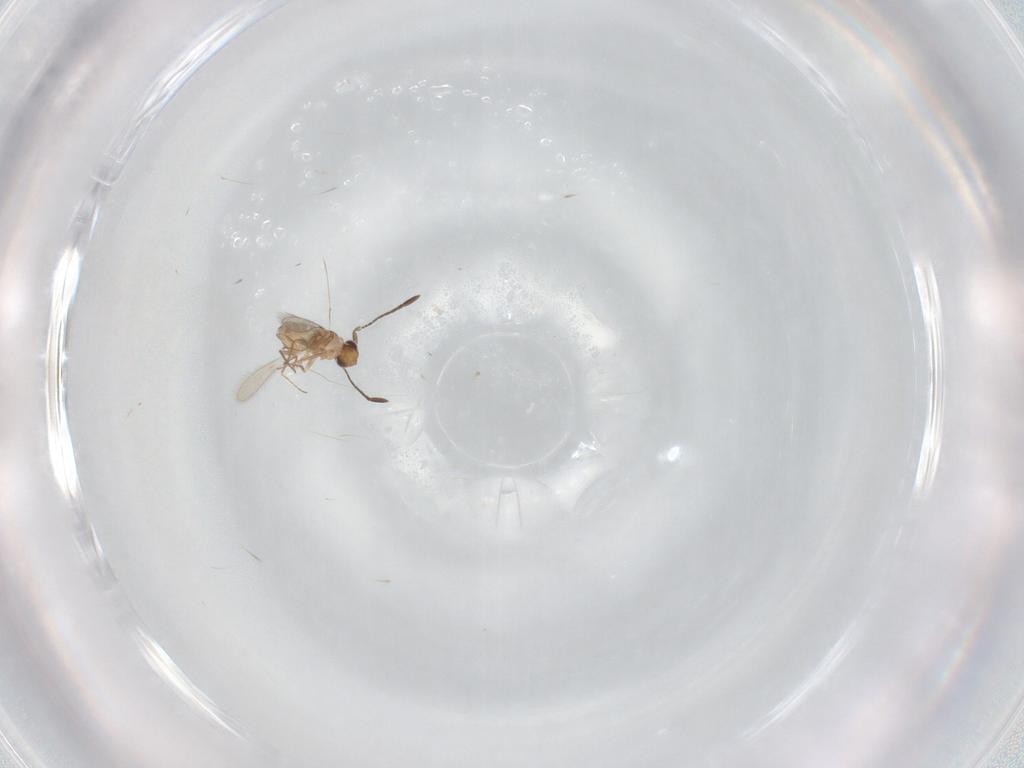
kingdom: Animalia
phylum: Arthropoda
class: Insecta
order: Hymenoptera
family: Mymaridae
